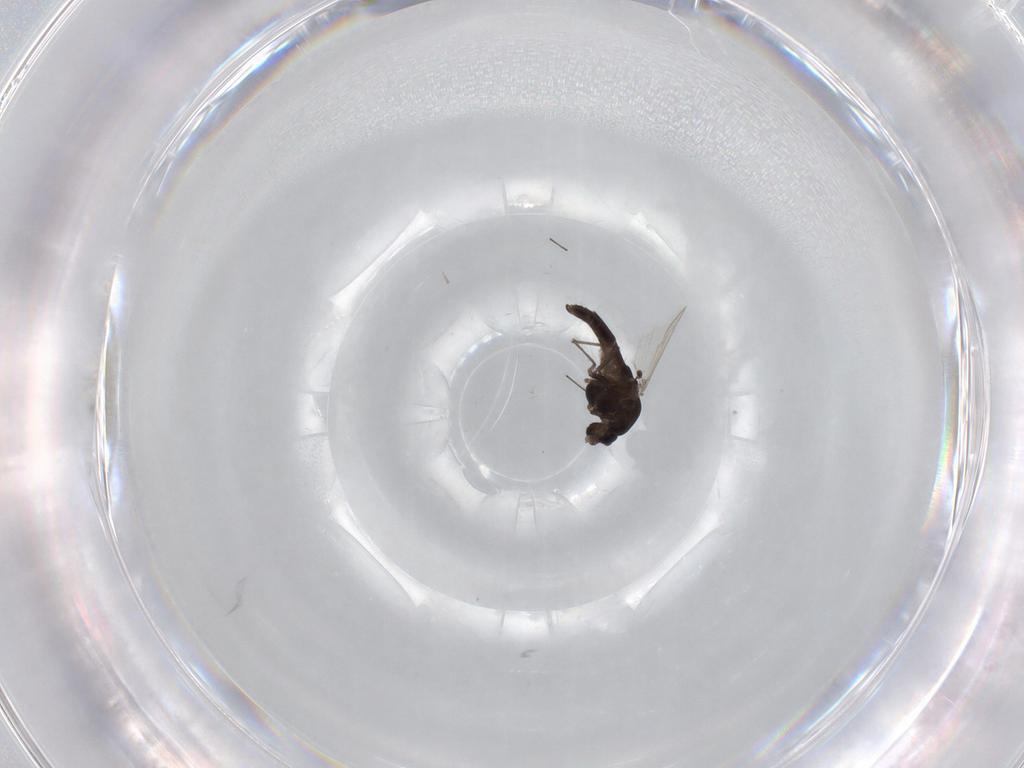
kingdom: Animalia
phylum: Arthropoda
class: Insecta
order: Diptera
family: Chironomidae
